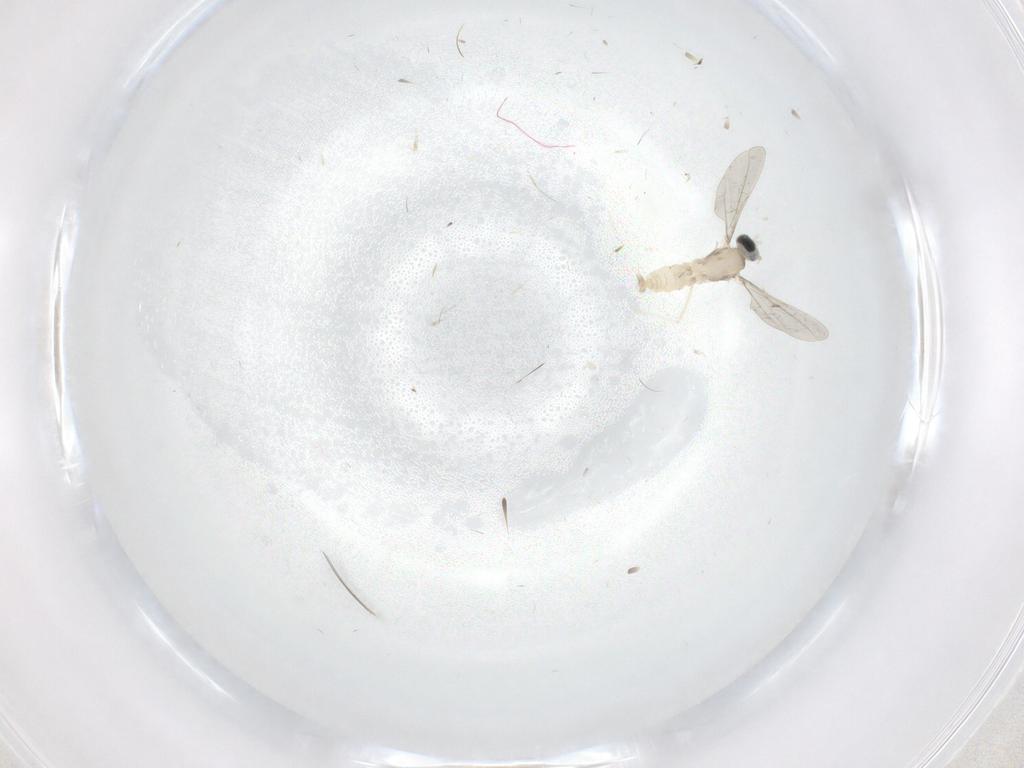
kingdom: Animalia
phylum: Arthropoda
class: Insecta
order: Diptera
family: Cecidomyiidae
